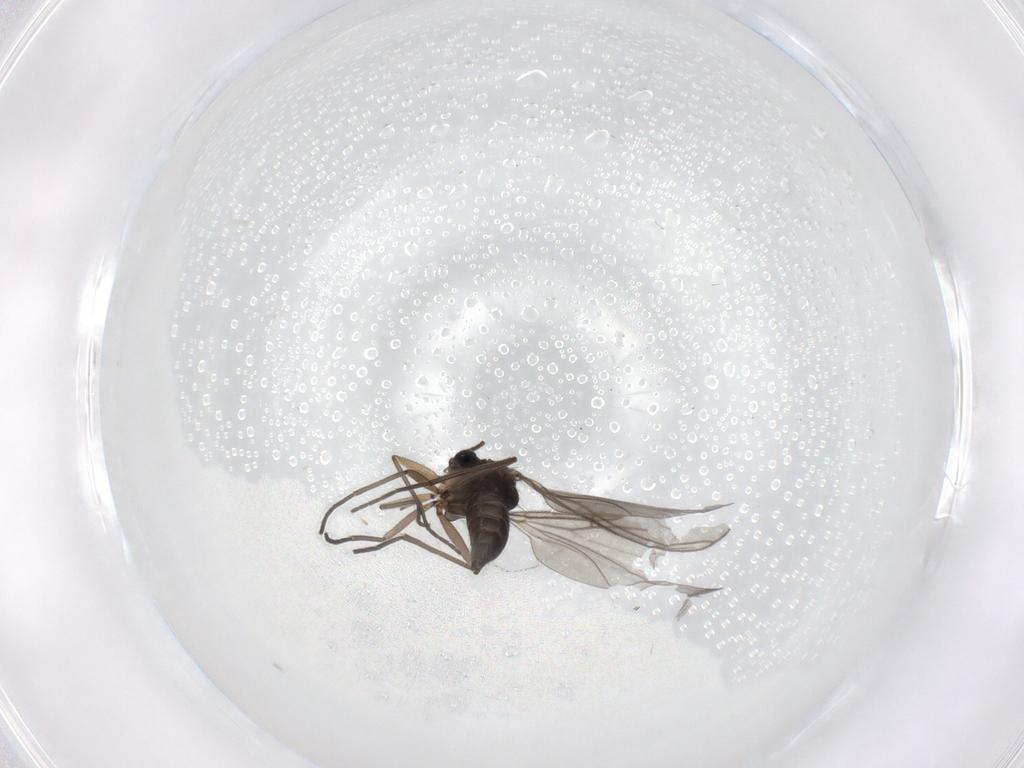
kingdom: Animalia
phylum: Arthropoda
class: Insecta
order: Diptera
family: Sciaridae
